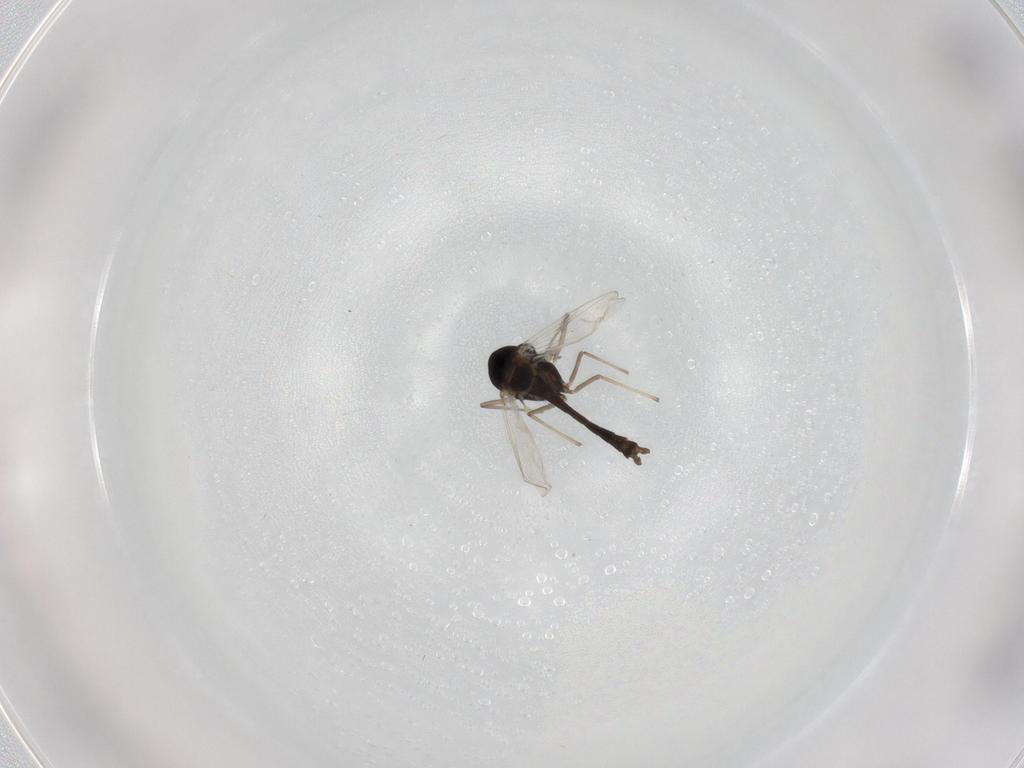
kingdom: Animalia
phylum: Arthropoda
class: Insecta
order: Diptera
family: Chironomidae
